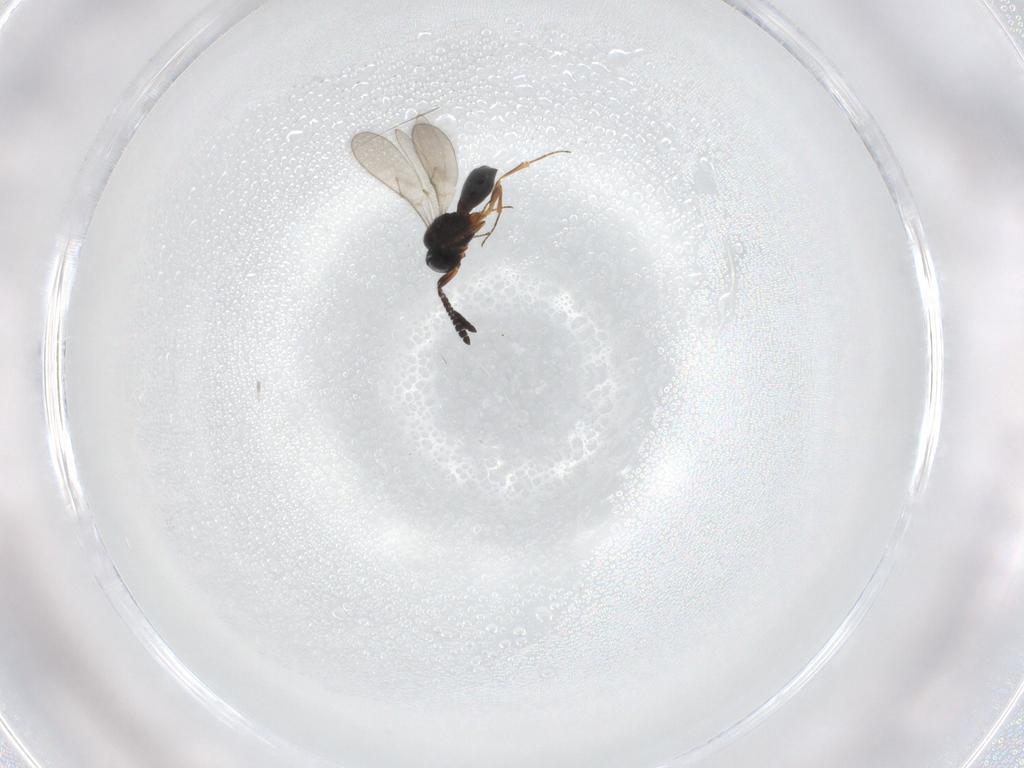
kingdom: Animalia
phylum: Arthropoda
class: Insecta
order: Hymenoptera
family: Scelionidae
